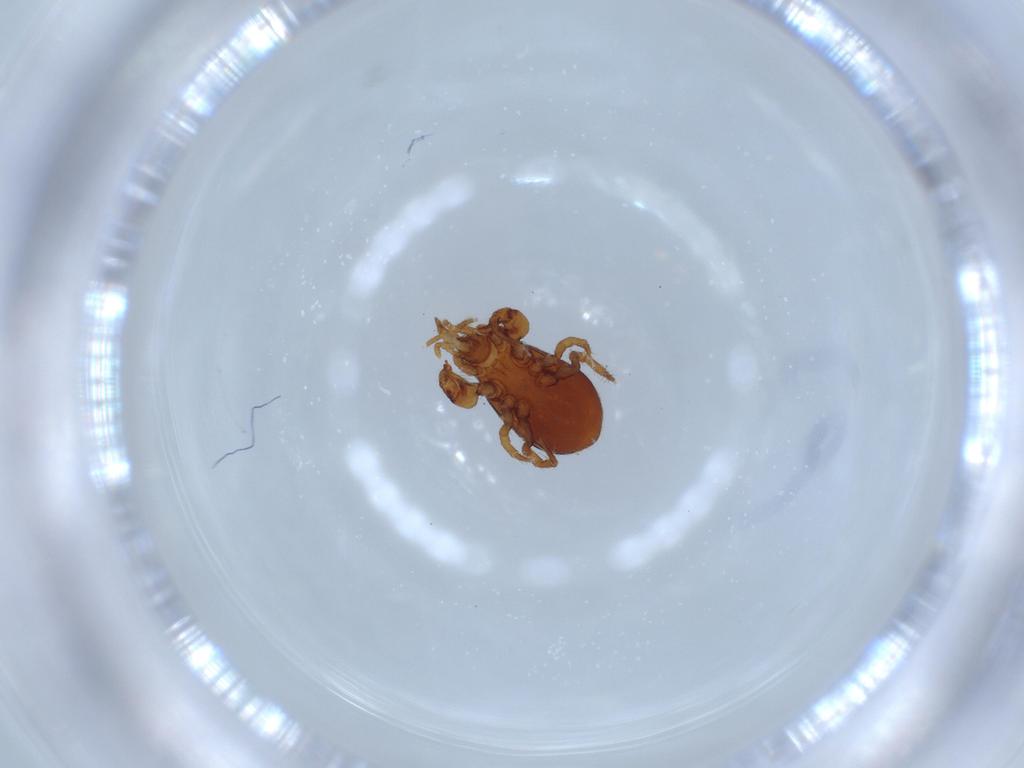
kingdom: Animalia
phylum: Arthropoda
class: Arachnida
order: Mesostigmata
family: Parasitidae
